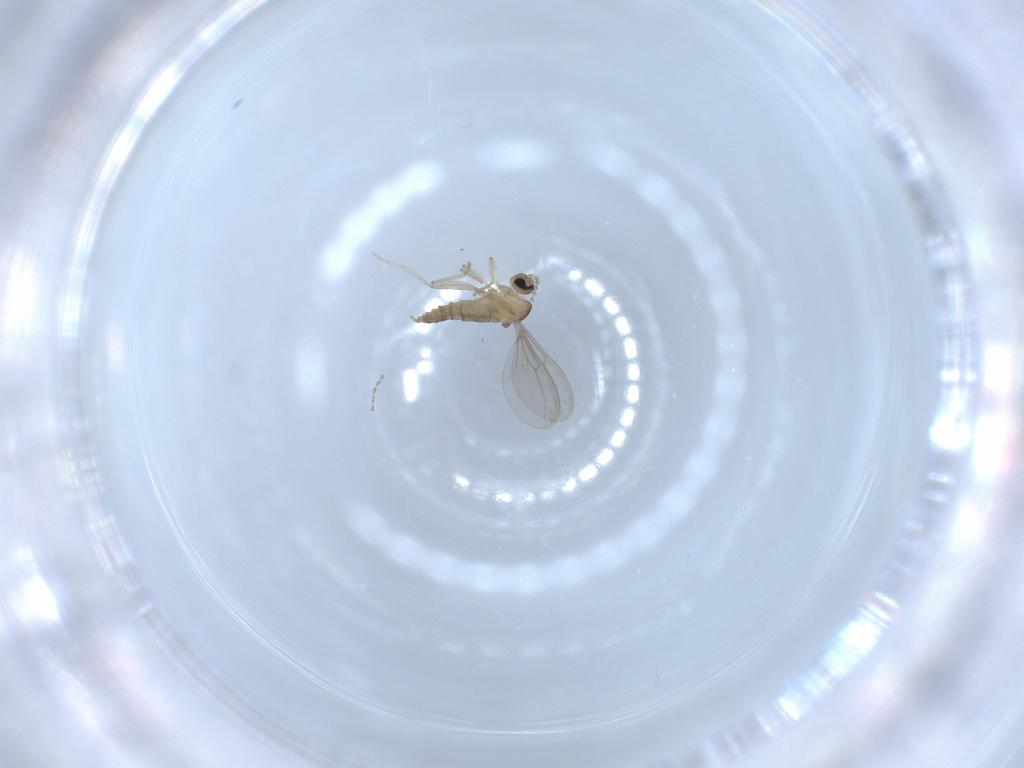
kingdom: Animalia
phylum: Arthropoda
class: Insecta
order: Diptera
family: Cecidomyiidae
